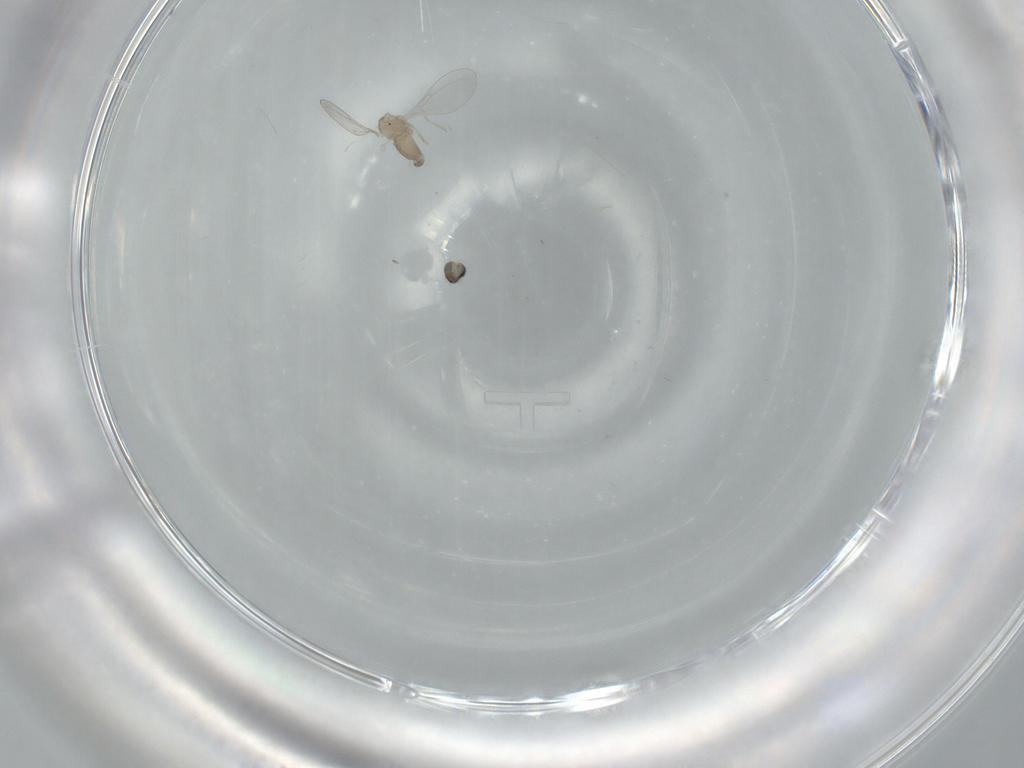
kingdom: Animalia
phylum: Arthropoda
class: Insecta
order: Diptera
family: Cecidomyiidae
